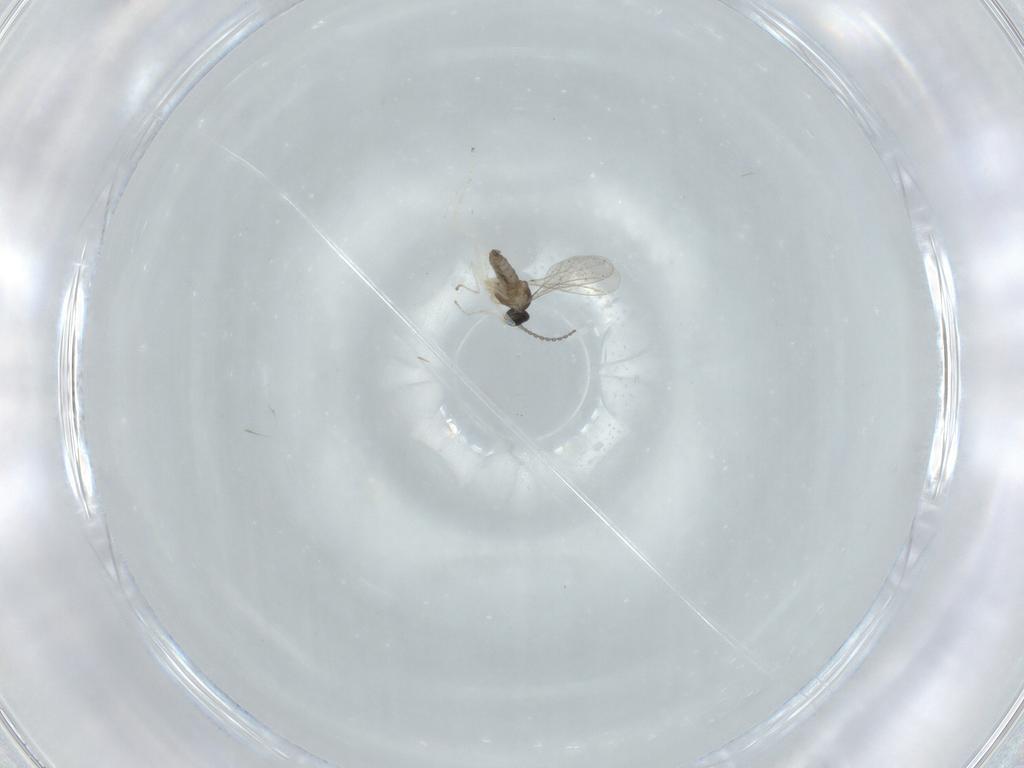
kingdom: Animalia
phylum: Arthropoda
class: Insecta
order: Diptera
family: Cecidomyiidae
